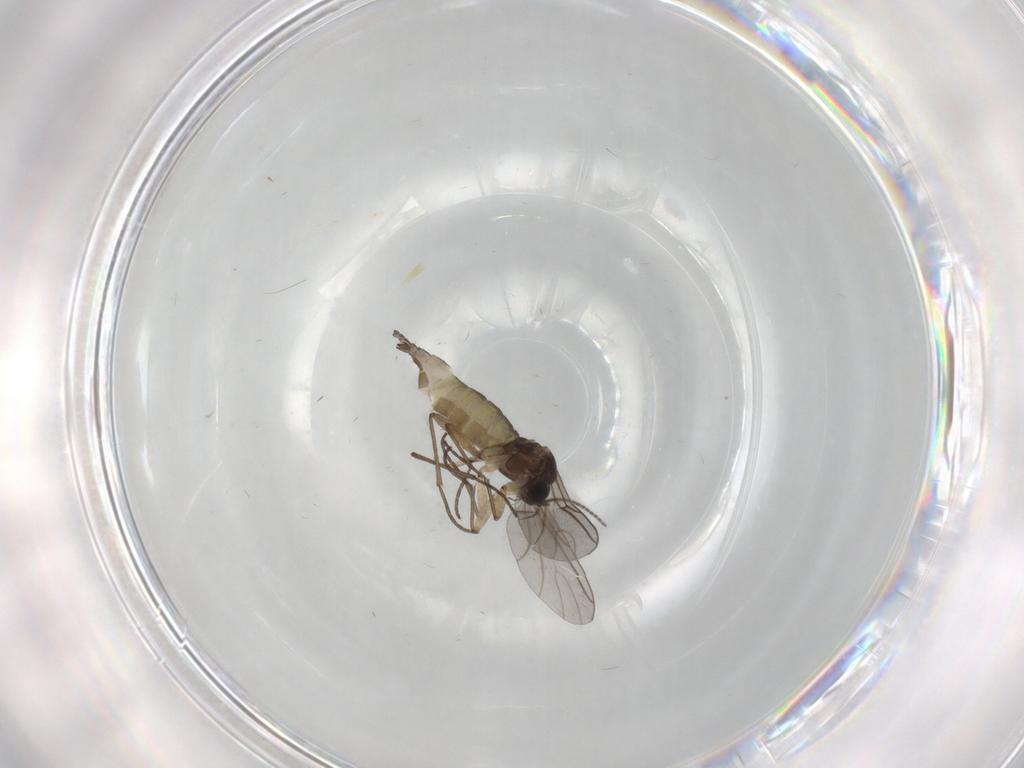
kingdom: Animalia
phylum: Arthropoda
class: Insecta
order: Diptera
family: Sciaridae
